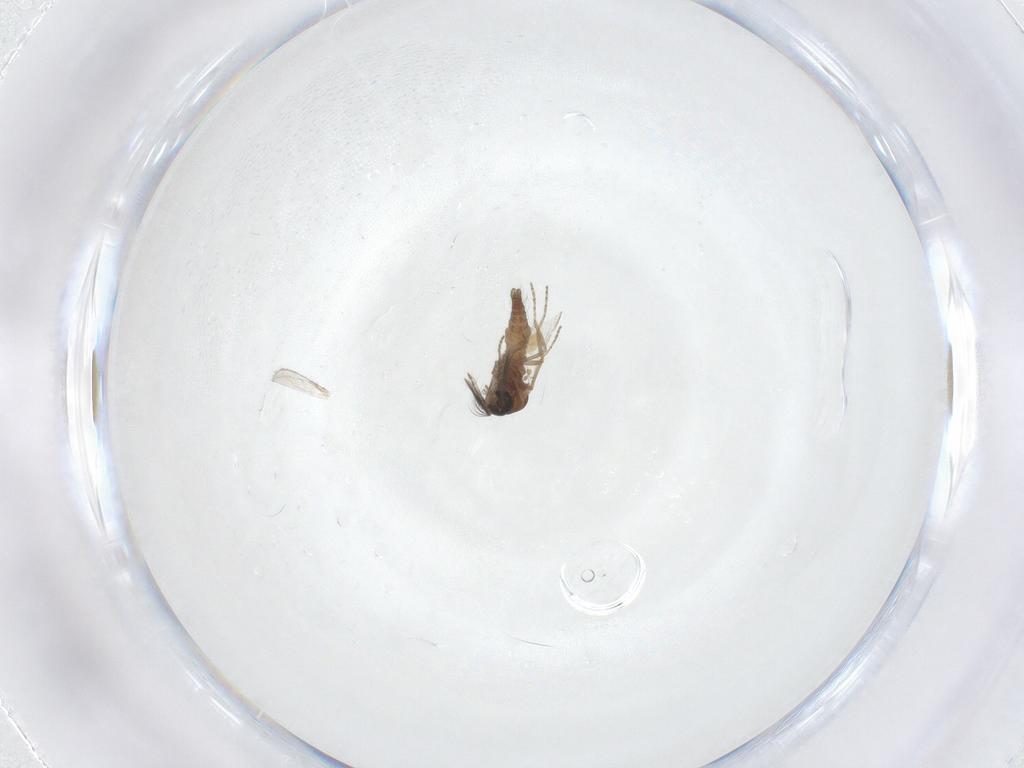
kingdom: Animalia
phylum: Arthropoda
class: Insecta
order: Diptera
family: Ceratopogonidae
